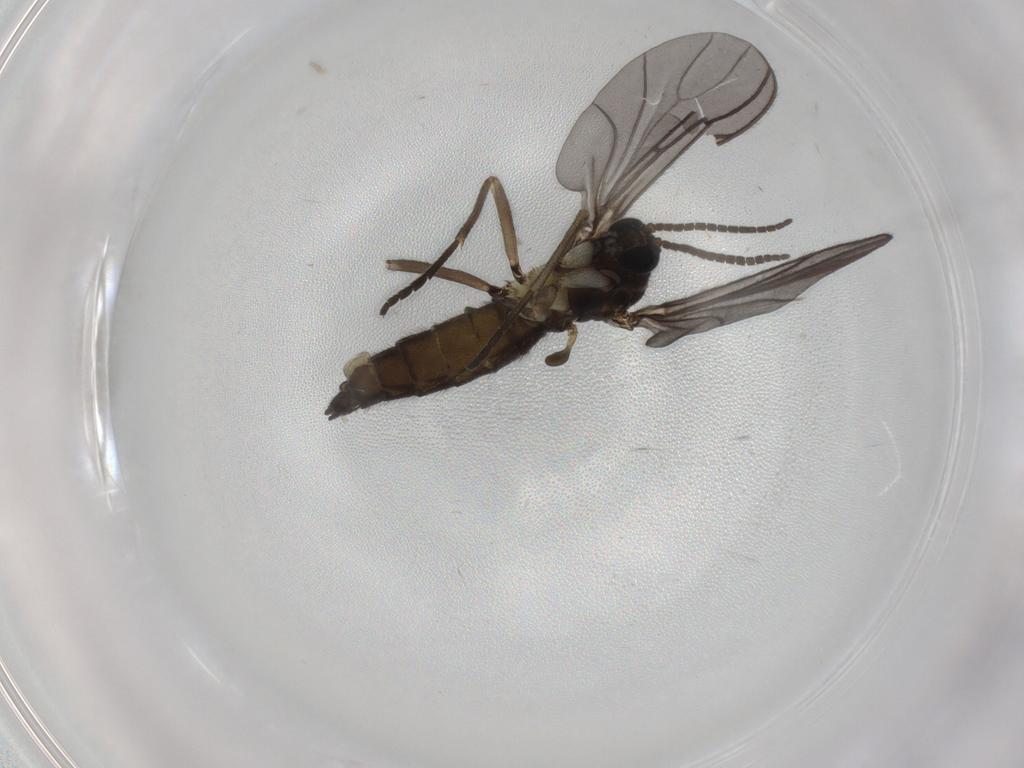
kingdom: Animalia
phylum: Arthropoda
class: Insecta
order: Diptera
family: Sciaridae
